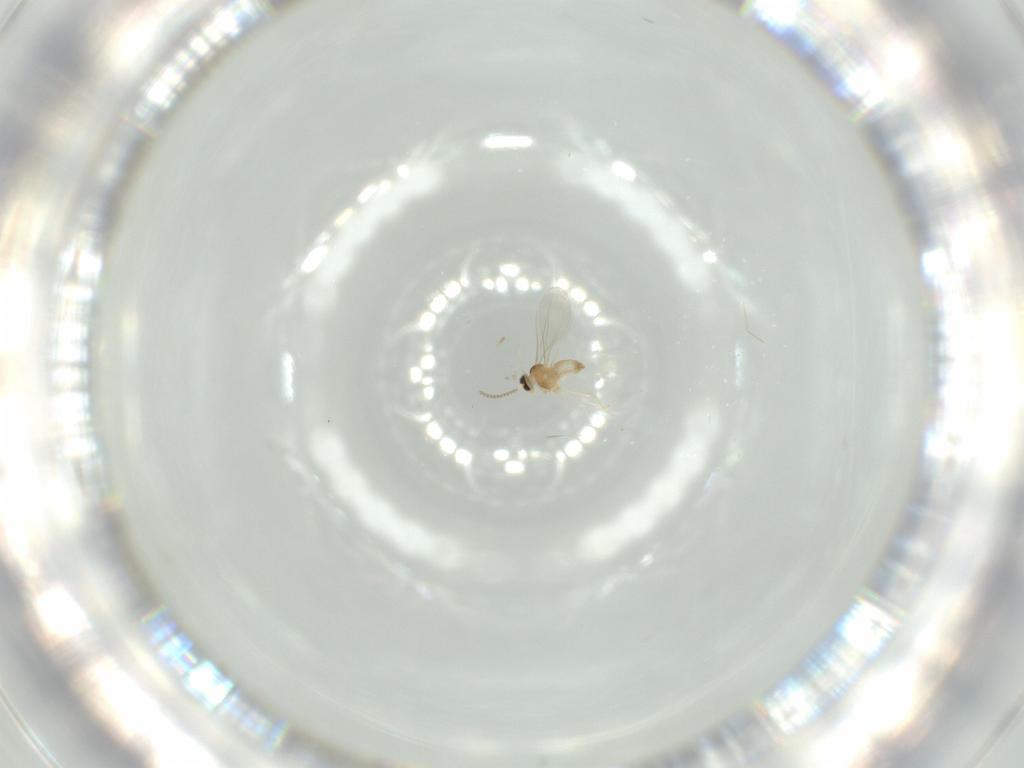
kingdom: Animalia
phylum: Arthropoda
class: Insecta
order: Diptera
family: Cecidomyiidae
